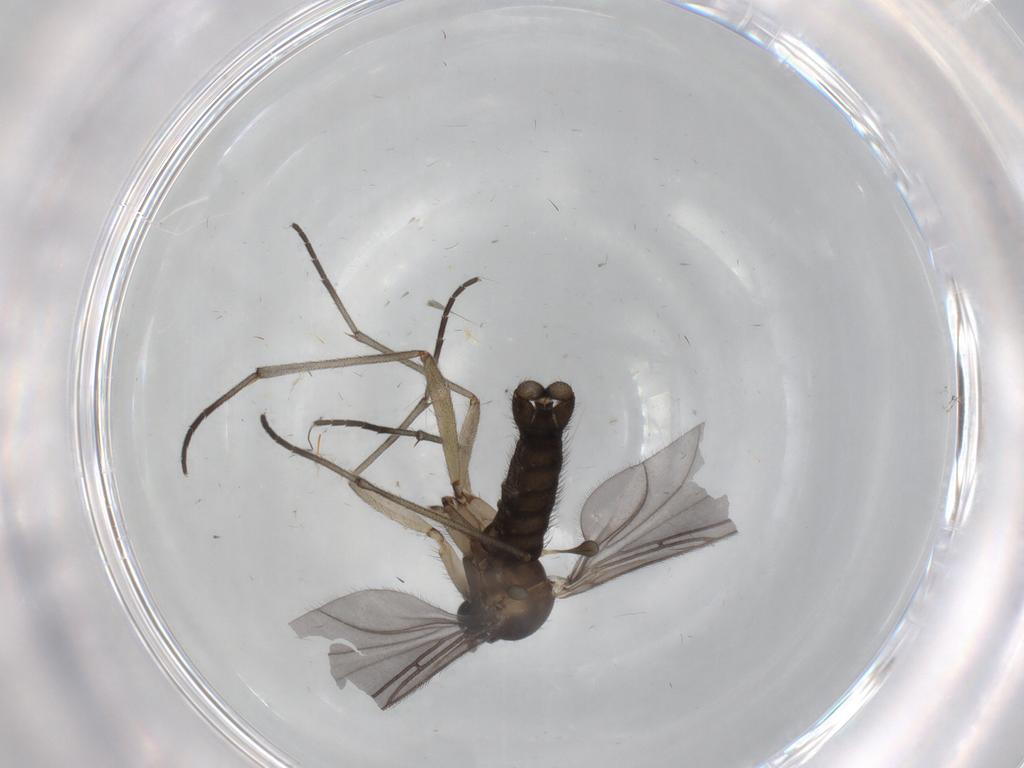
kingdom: Animalia
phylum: Arthropoda
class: Insecta
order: Diptera
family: Sciaridae
